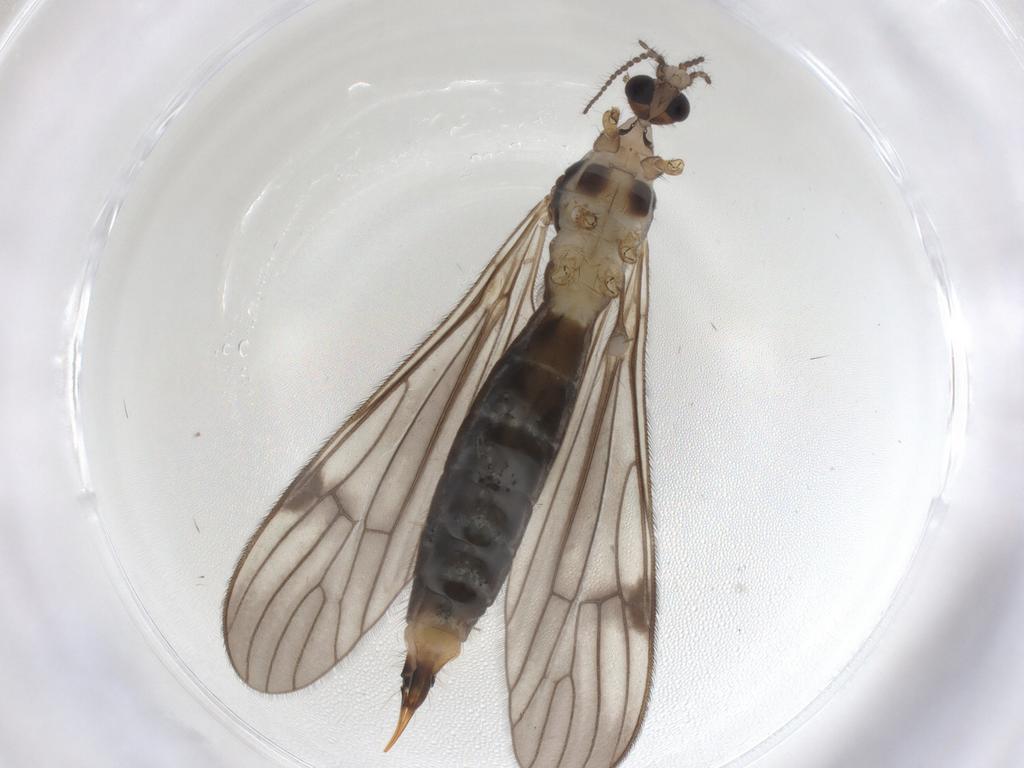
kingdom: Animalia
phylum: Arthropoda
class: Insecta
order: Diptera
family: Limoniidae
